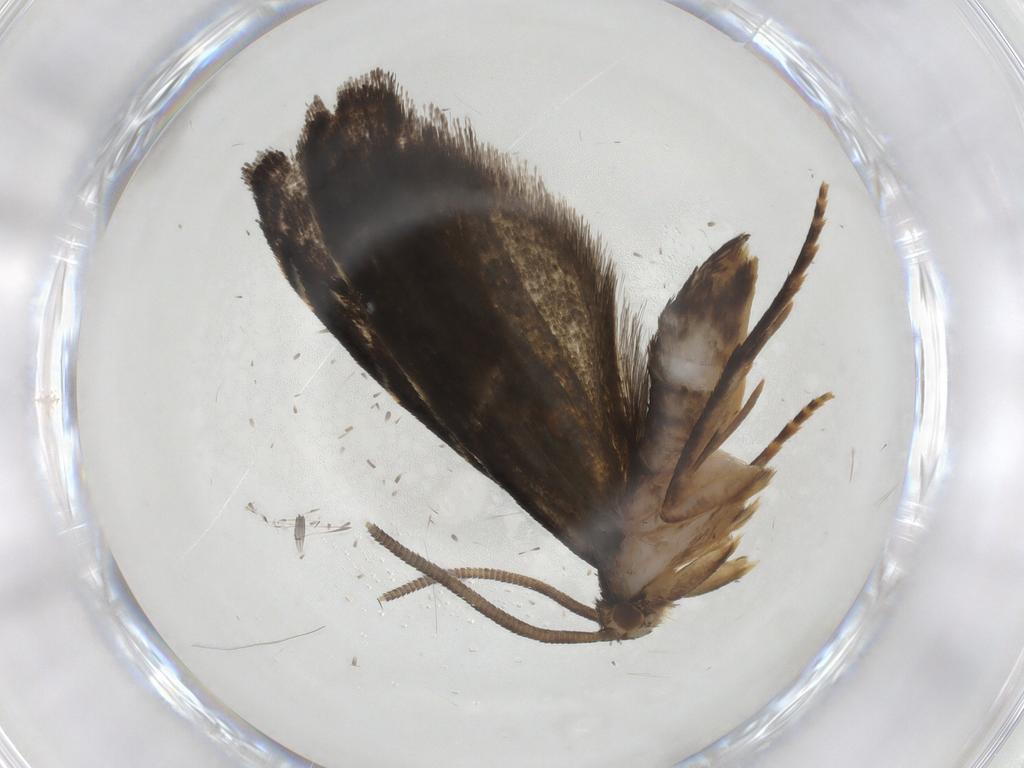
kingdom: Animalia
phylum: Arthropoda
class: Insecta
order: Lepidoptera
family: Dryadaulidae
